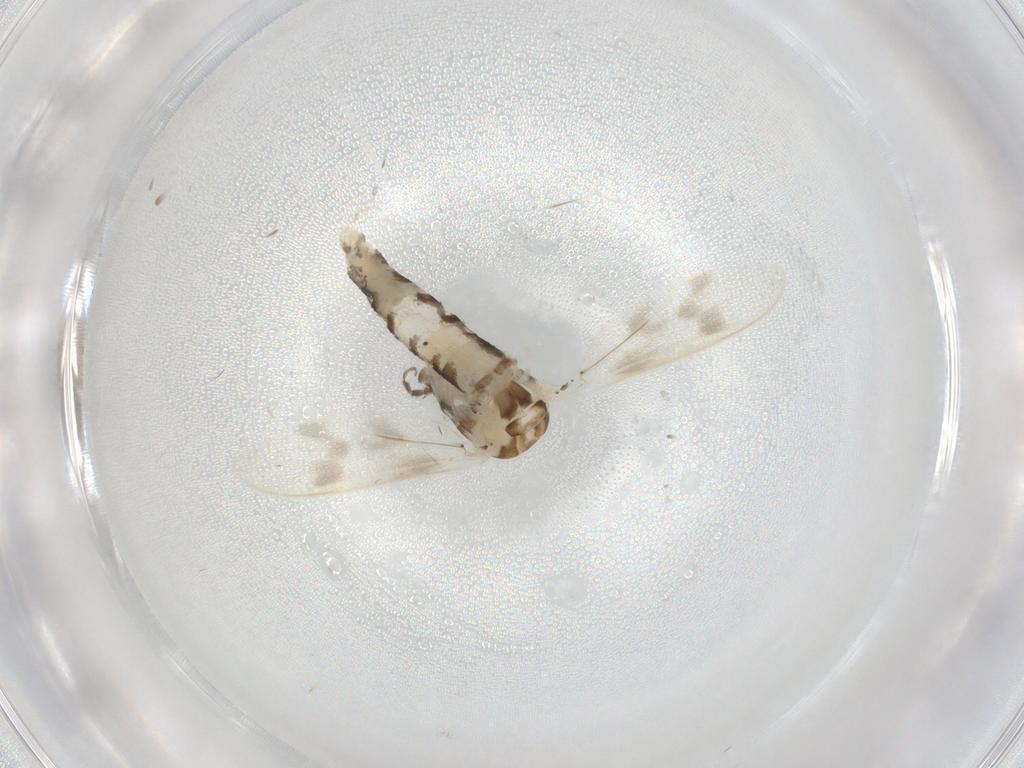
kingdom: Animalia
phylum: Arthropoda
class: Insecta
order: Diptera
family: Corethrellidae
